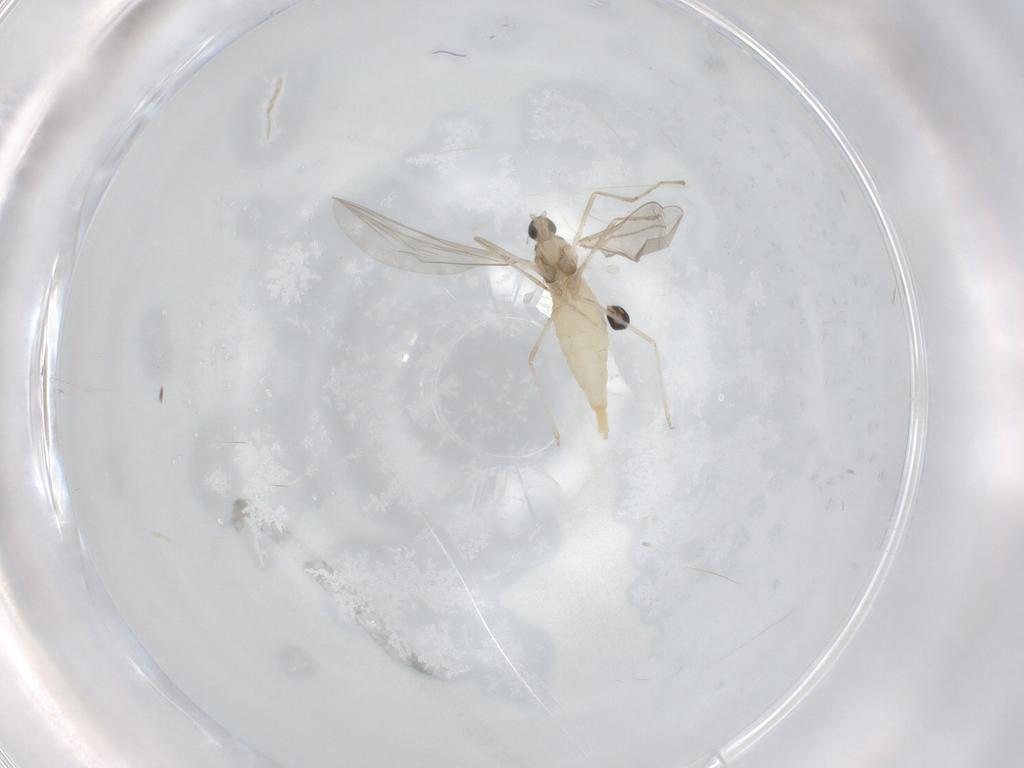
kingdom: Animalia
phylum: Arthropoda
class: Insecta
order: Diptera
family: Cecidomyiidae
